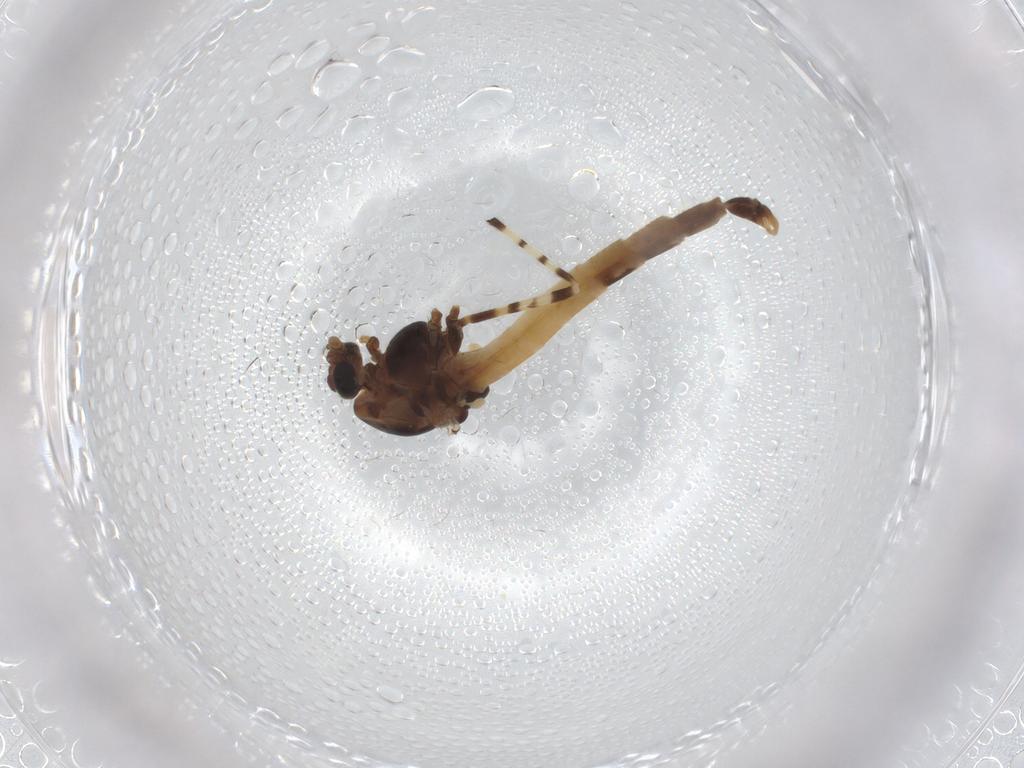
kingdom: Animalia
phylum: Arthropoda
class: Insecta
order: Diptera
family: Chironomidae
